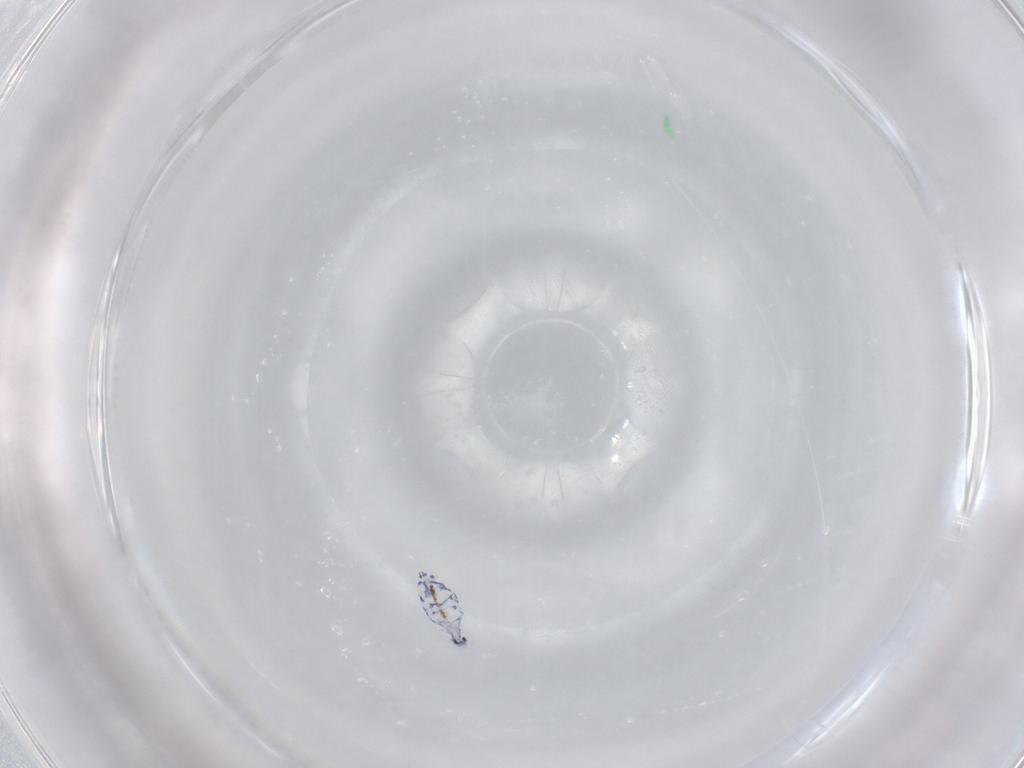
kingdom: Animalia
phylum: Arthropoda
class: Collembola
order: Entomobryomorpha
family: Entomobryidae
